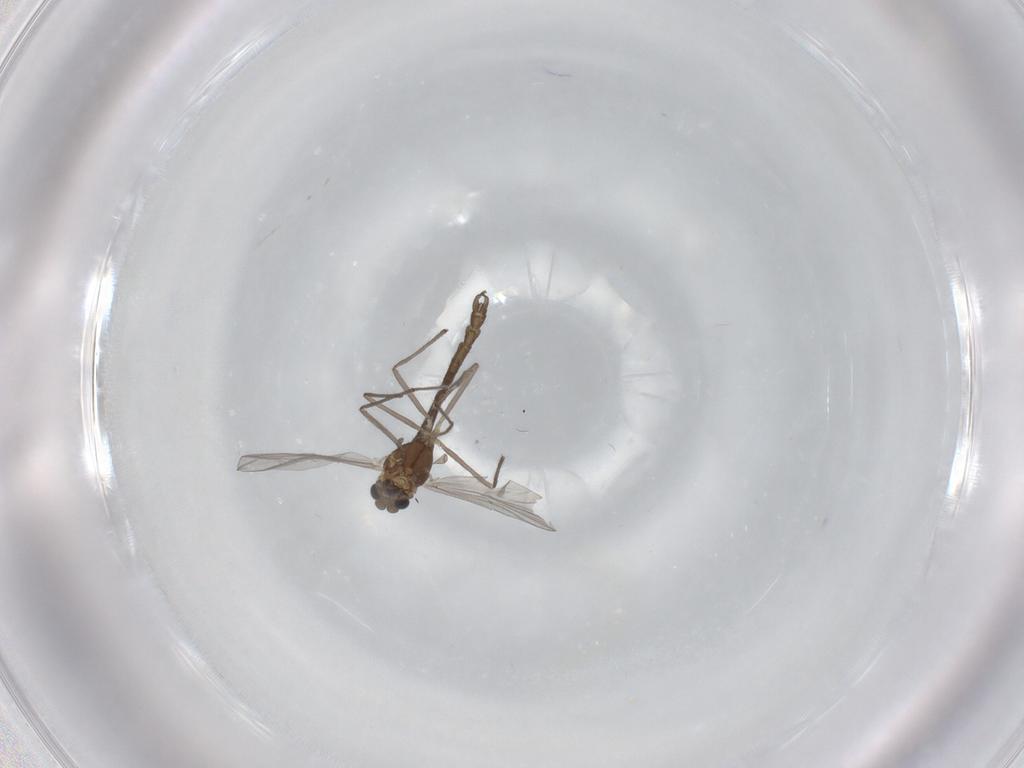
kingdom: Animalia
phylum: Arthropoda
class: Insecta
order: Diptera
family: Chironomidae
